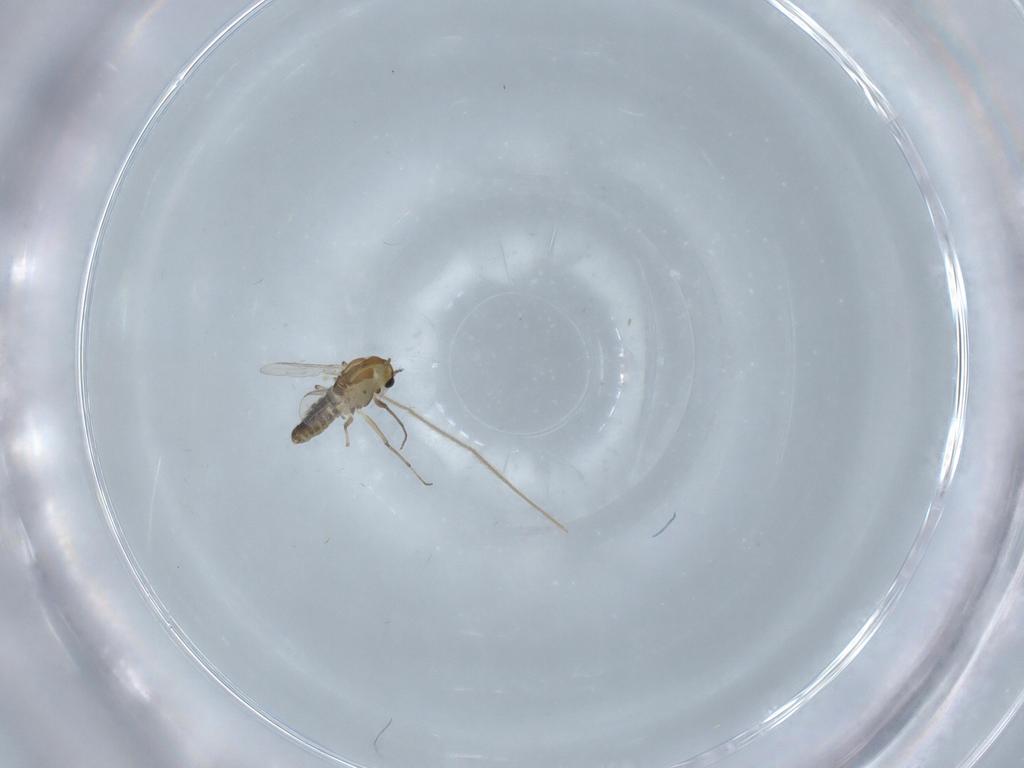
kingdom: Animalia
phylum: Arthropoda
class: Insecta
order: Diptera
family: Chironomidae
